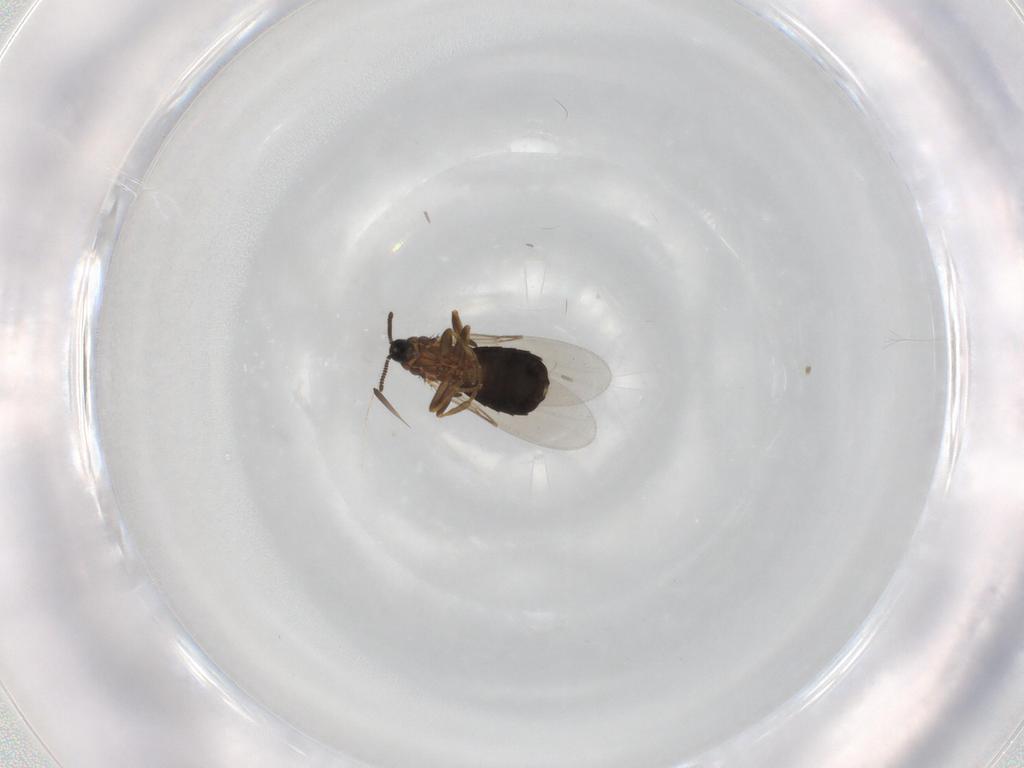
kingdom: Animalia
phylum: Arthropoda
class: Insecta
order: Diptera
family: Scatopsidae
